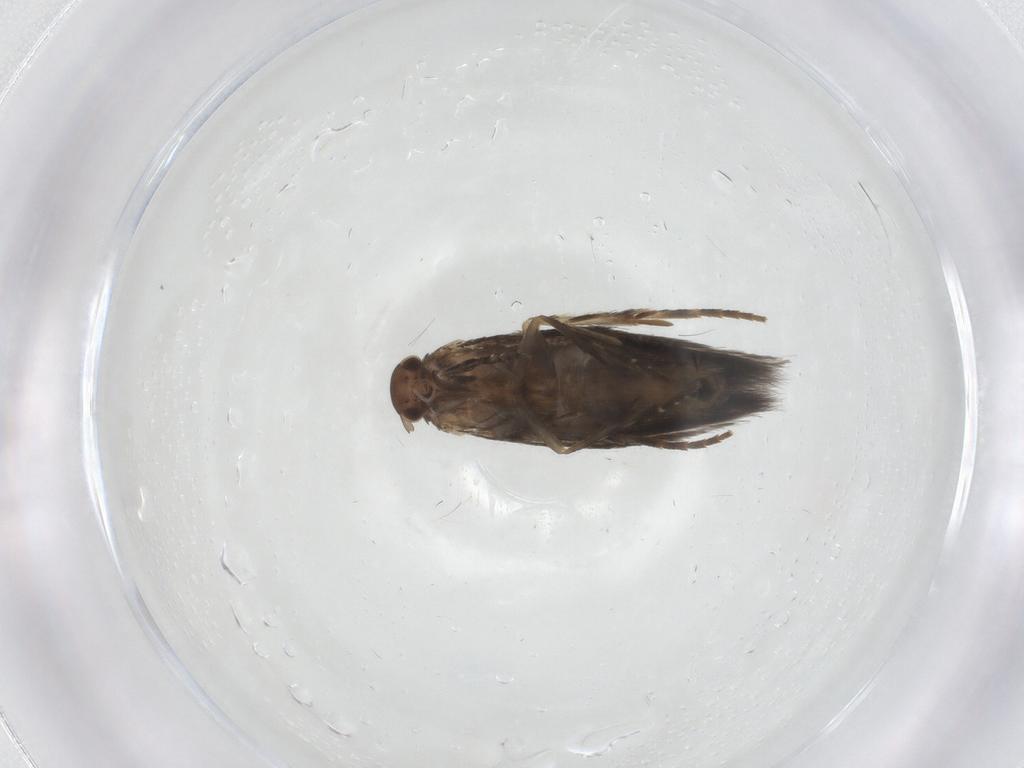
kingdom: Animalia
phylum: Arthropoda
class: Insecta
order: Lepidoptera
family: Elachistidae
